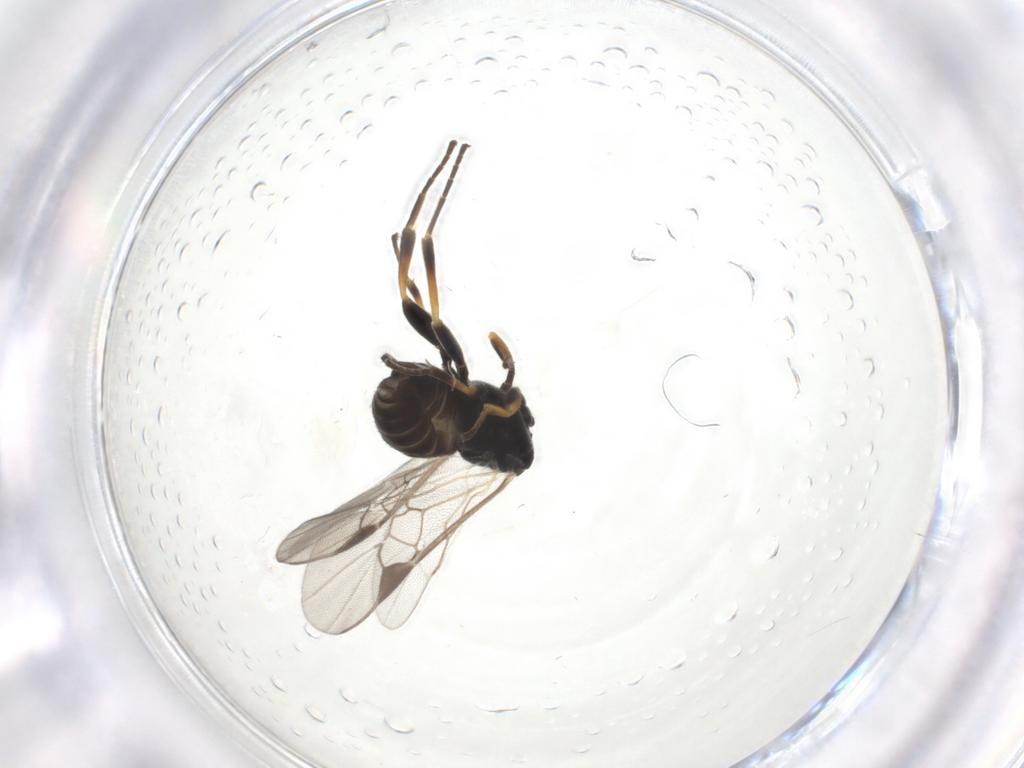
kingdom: Animalia
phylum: Arthropoda
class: Insecta
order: Hymenoptera
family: Braconidae
